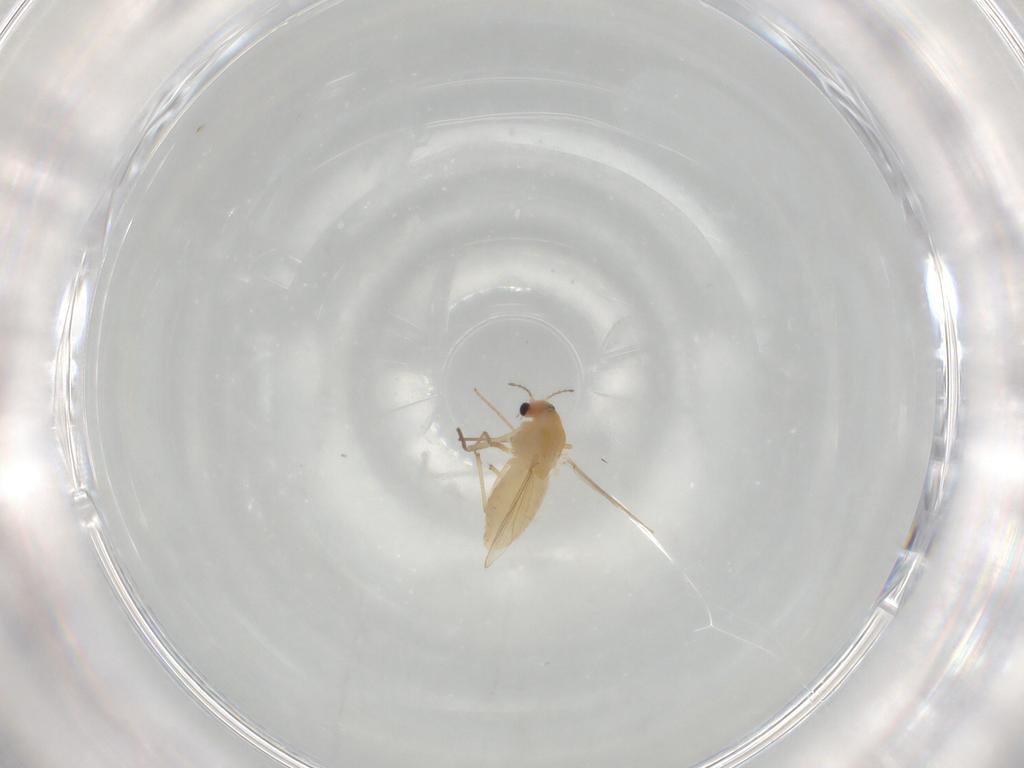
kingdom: Animalia
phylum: Arthropoda
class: Insecta
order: Diptera
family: Chironomidae
